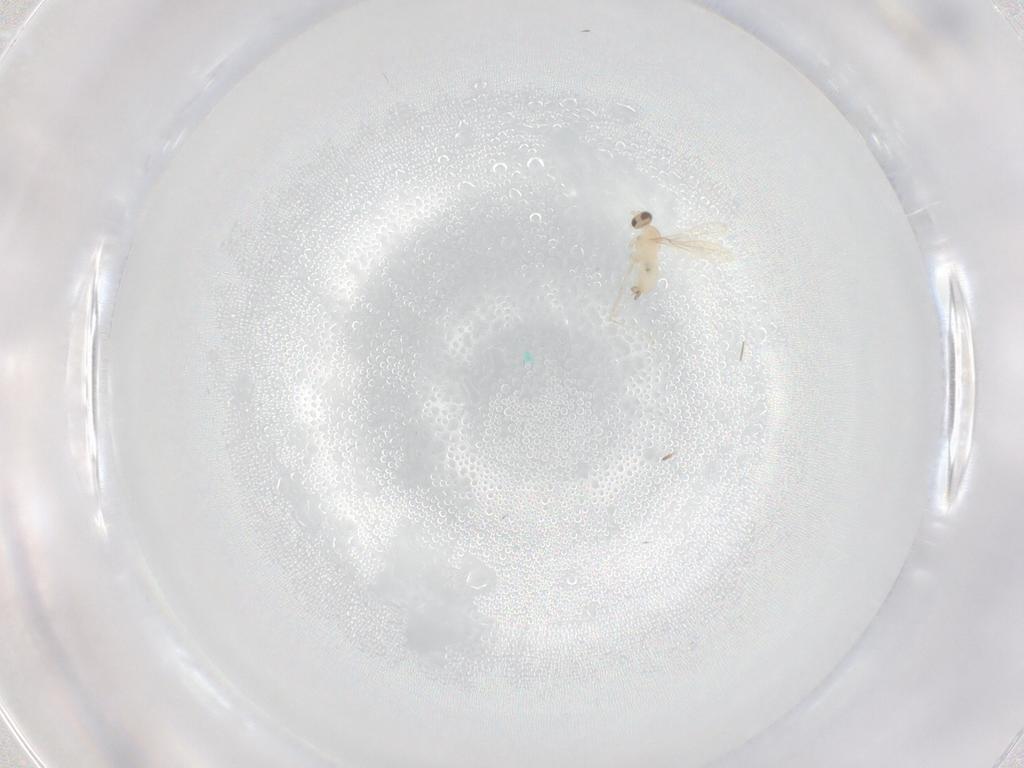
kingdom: Animalia
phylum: Arthropoda
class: Insecta
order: Diptera
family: Cecidomyiidae
